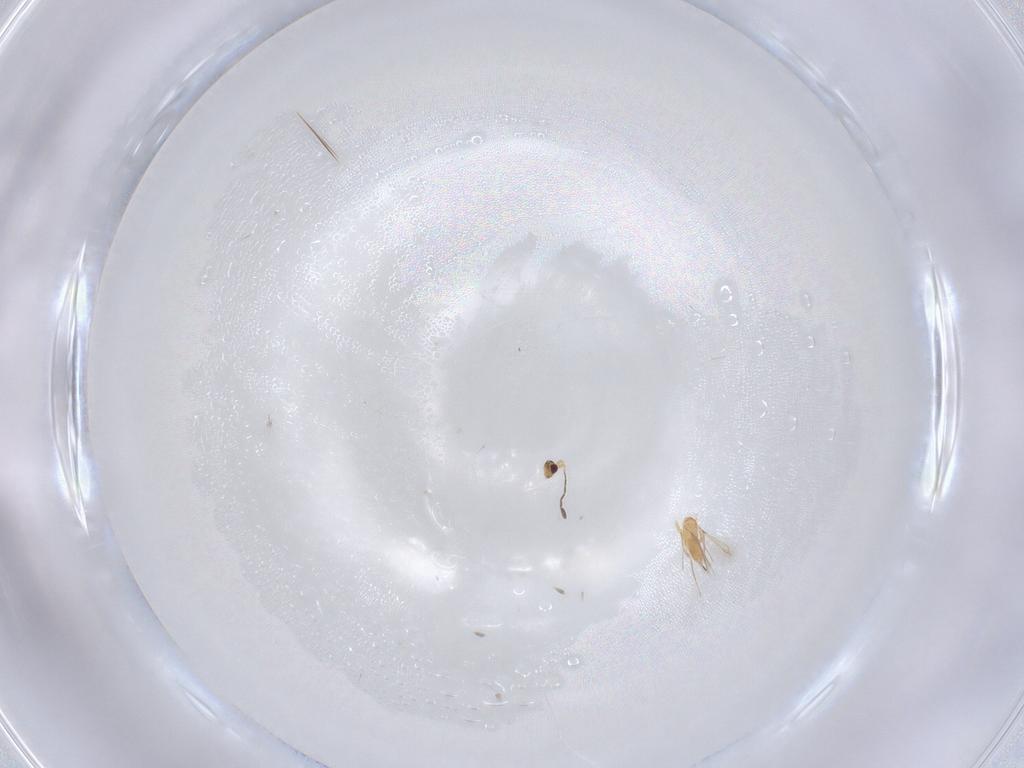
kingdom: Animalia
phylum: Arthropoda
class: Insecta
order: Hymenoptera
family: Mymaridae
